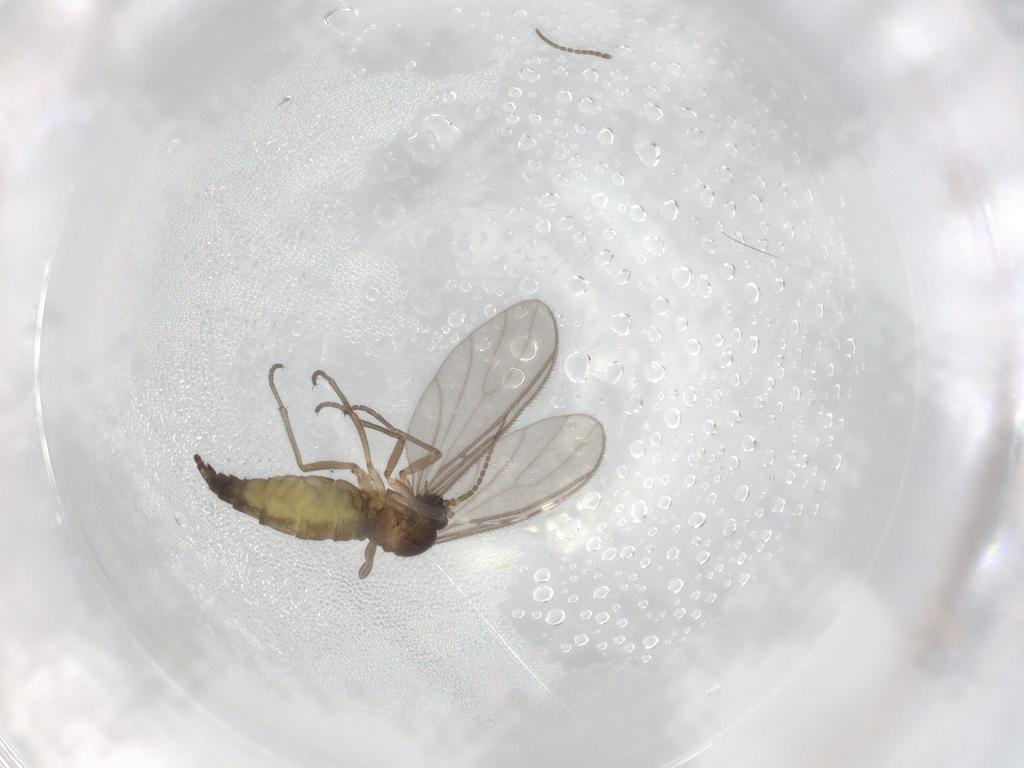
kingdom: Animalia
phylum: Arthropoda
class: Insecta
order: Diptera
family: Sciaridae
